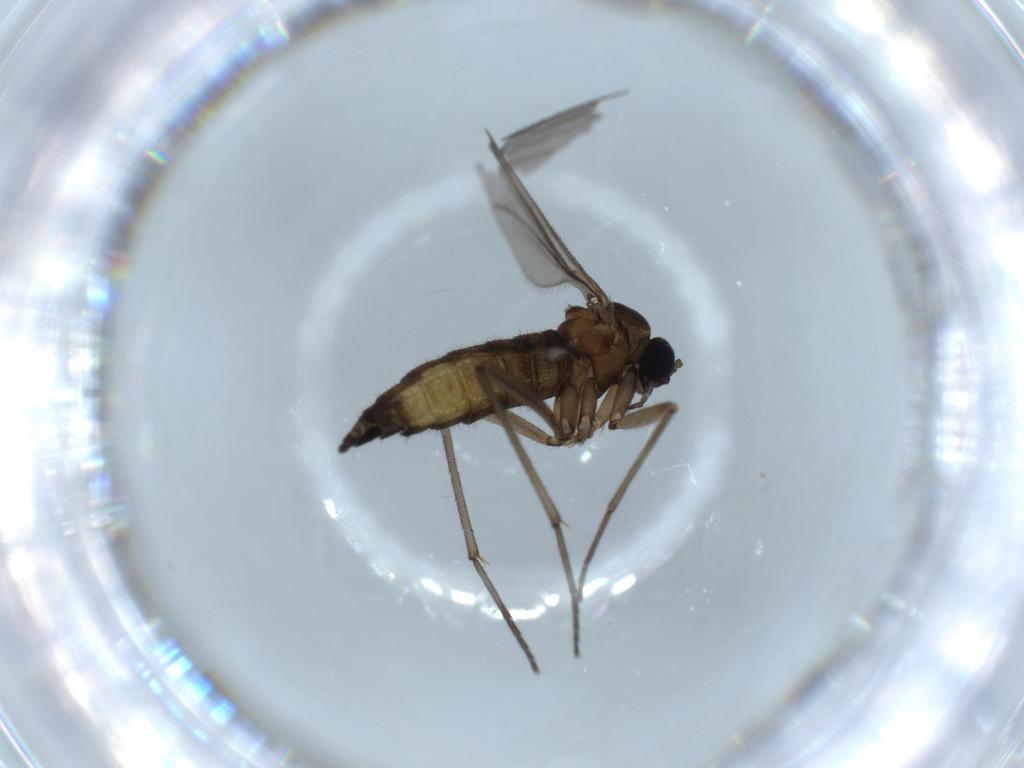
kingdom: Animalia
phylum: Arthropoda
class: Insecta
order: Diptera
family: Sciaridae
